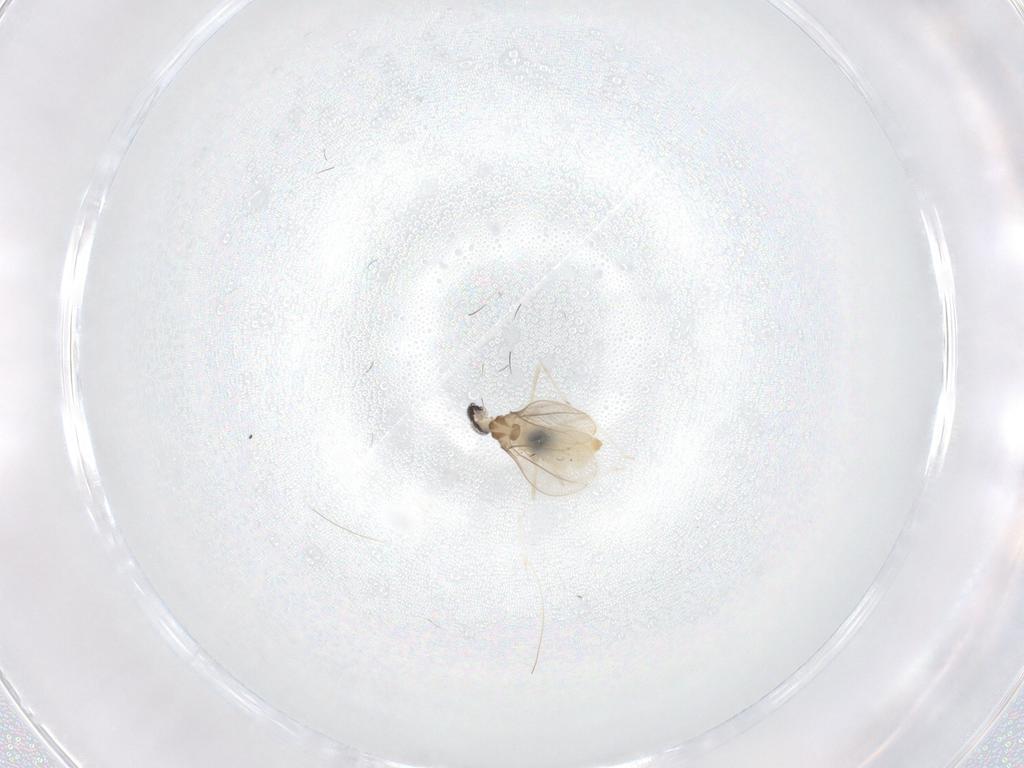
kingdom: Animalia
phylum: Arthropoda
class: Insecta
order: Diptera
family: Cecidomyiidae
